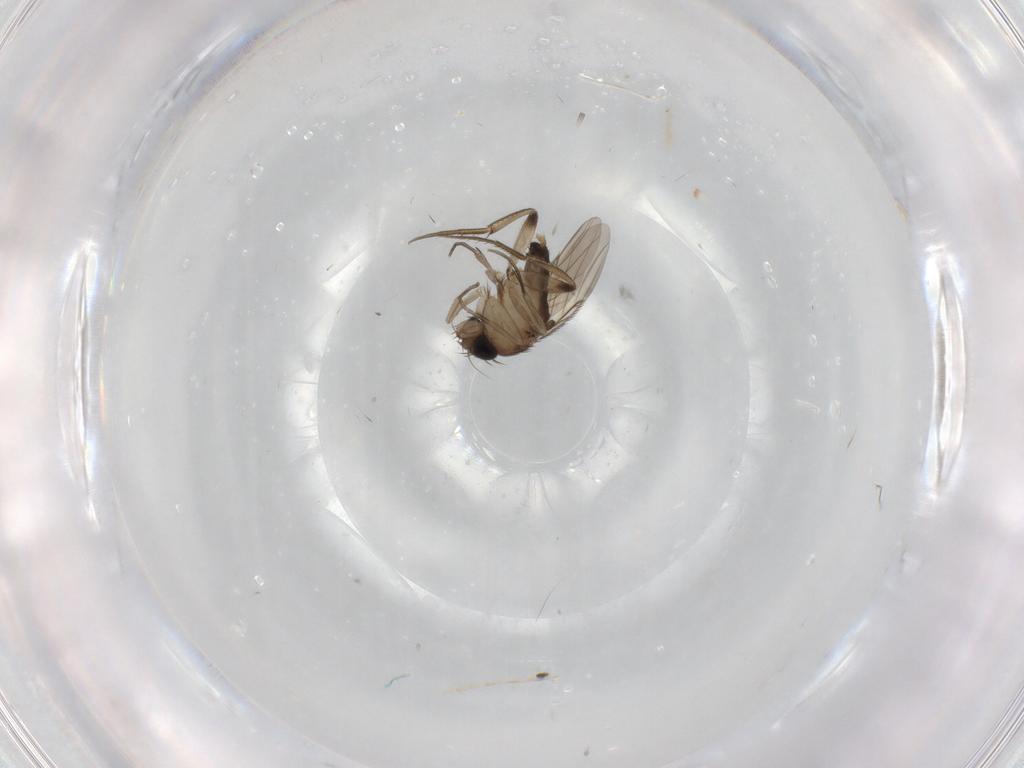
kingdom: Animalia
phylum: Arthropoda
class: Insecta
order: Diptera
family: Phoridae
